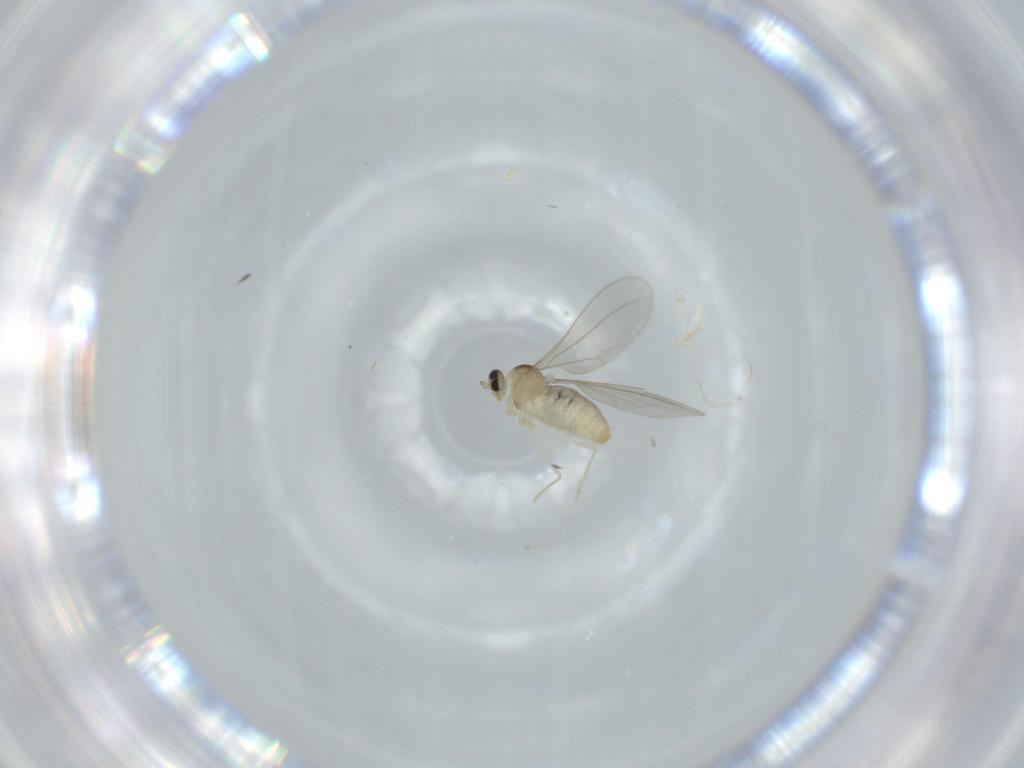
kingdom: Animalia
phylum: Arthropoda
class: Insecta
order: Diptera
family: Cecidomyiidae
